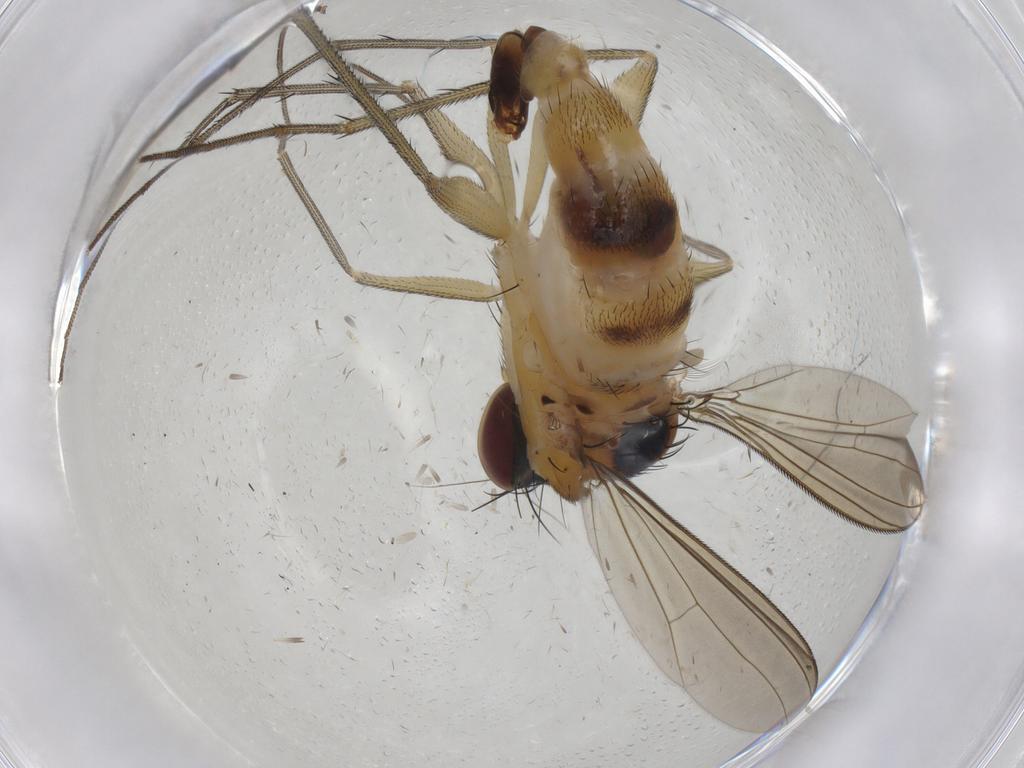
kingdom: Animalia
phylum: Arthropoda
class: Insecta
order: Diptera
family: Dolichopodidae
